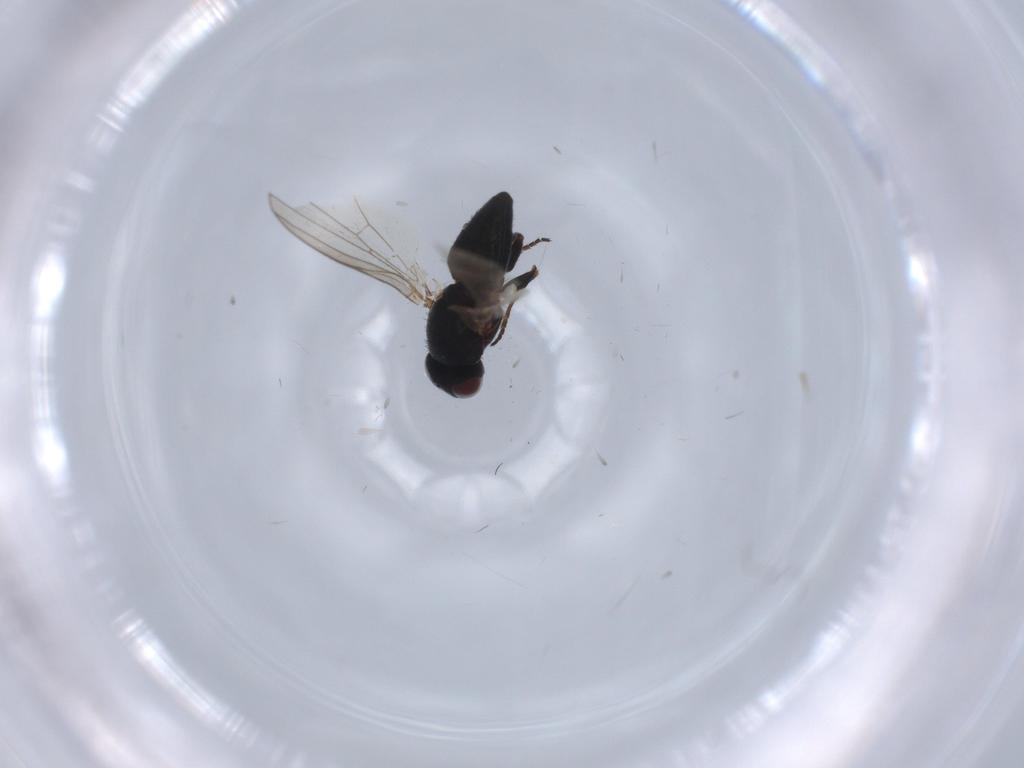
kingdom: Animalia
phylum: Arthropoda
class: Insecta
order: Diptera
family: Chamaemyiidae
